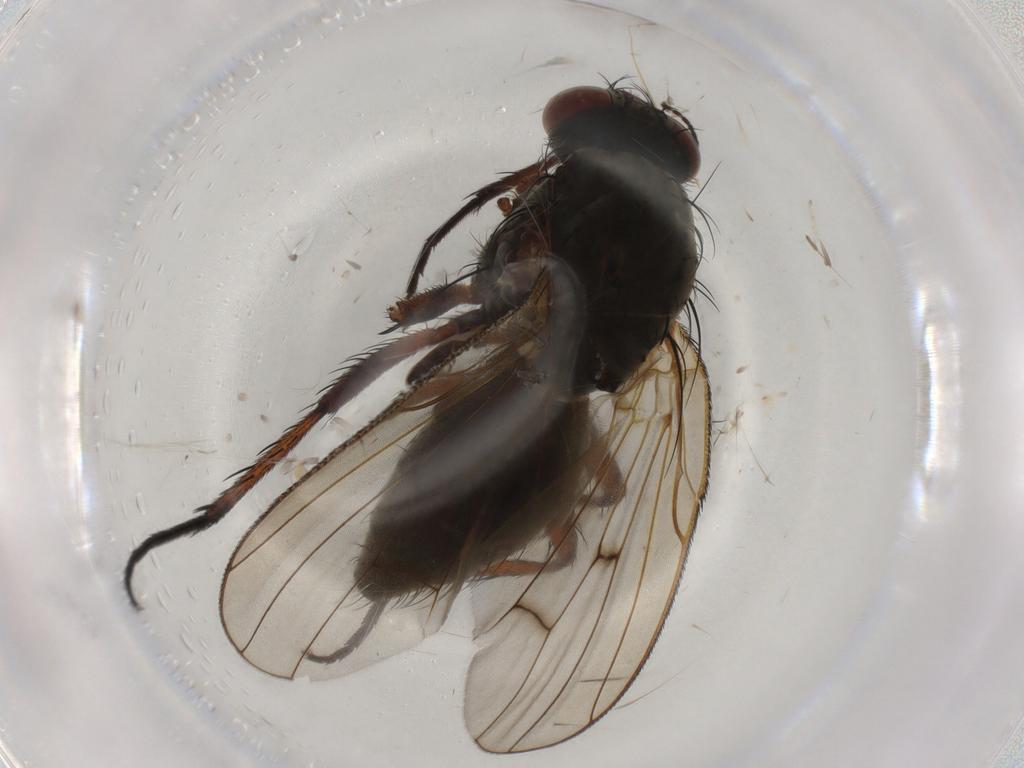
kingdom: Animalia
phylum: Arthropoda
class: Insecta
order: Diptera
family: Anthomyiidae
